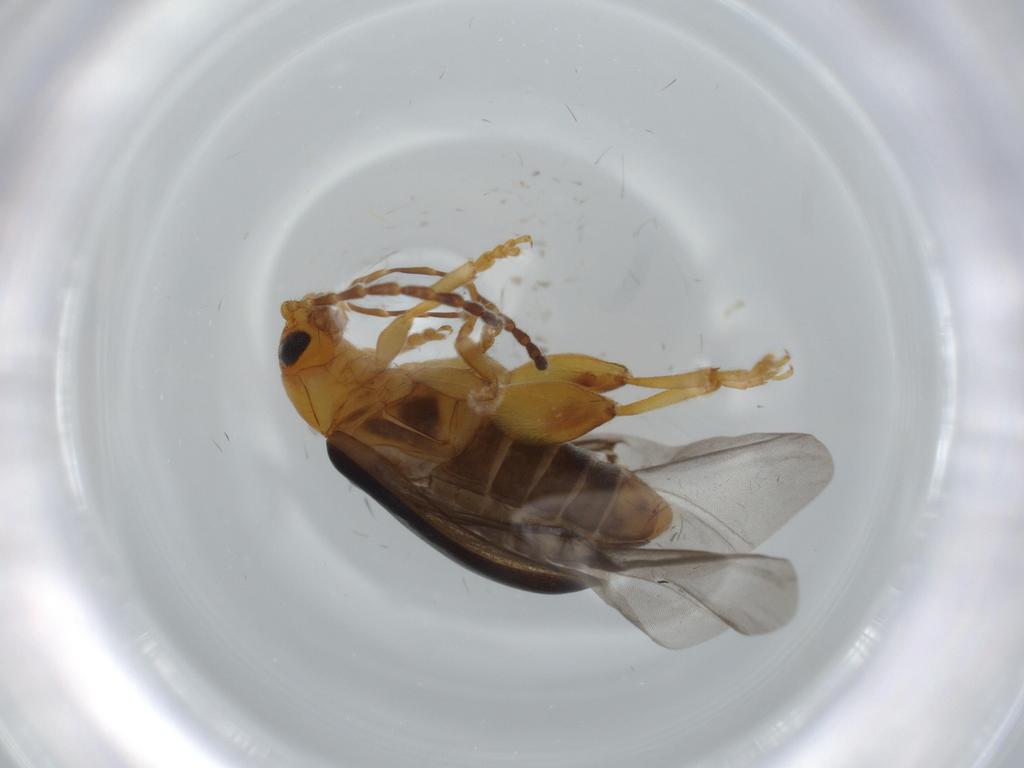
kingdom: Animalia
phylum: Arthropoda
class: Insecta
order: Coleoptera
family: Chrysomelidae
